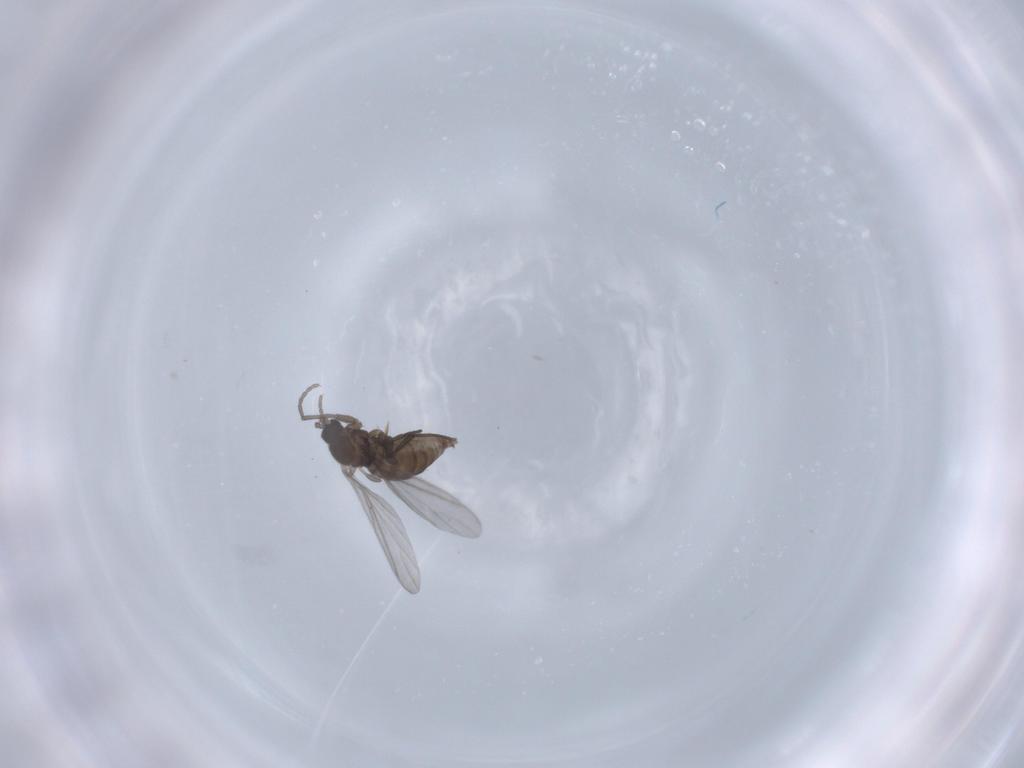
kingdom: Animalia
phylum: Arthropoda
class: Insecta
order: Diptera
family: Sciaridae
